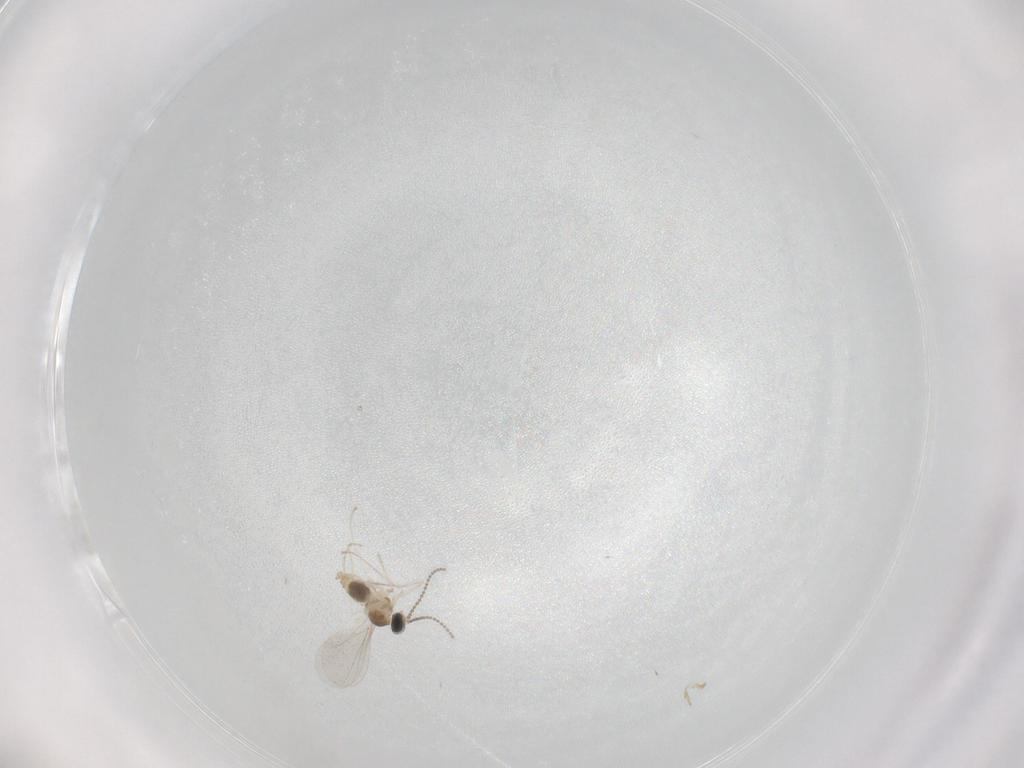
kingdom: Animalia
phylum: Arthropoda
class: Insecta
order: Diptera
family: Cecidomyiidae
